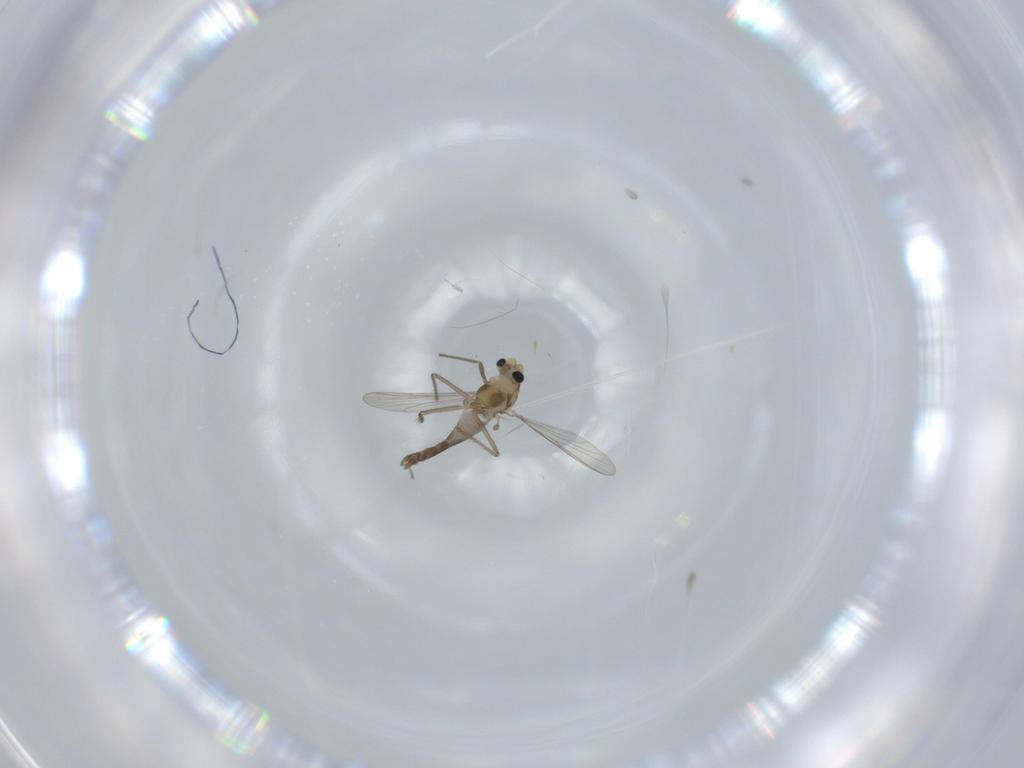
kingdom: Animalia
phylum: Arthropoda
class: Insecta
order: Diptera
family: Chironomidae
